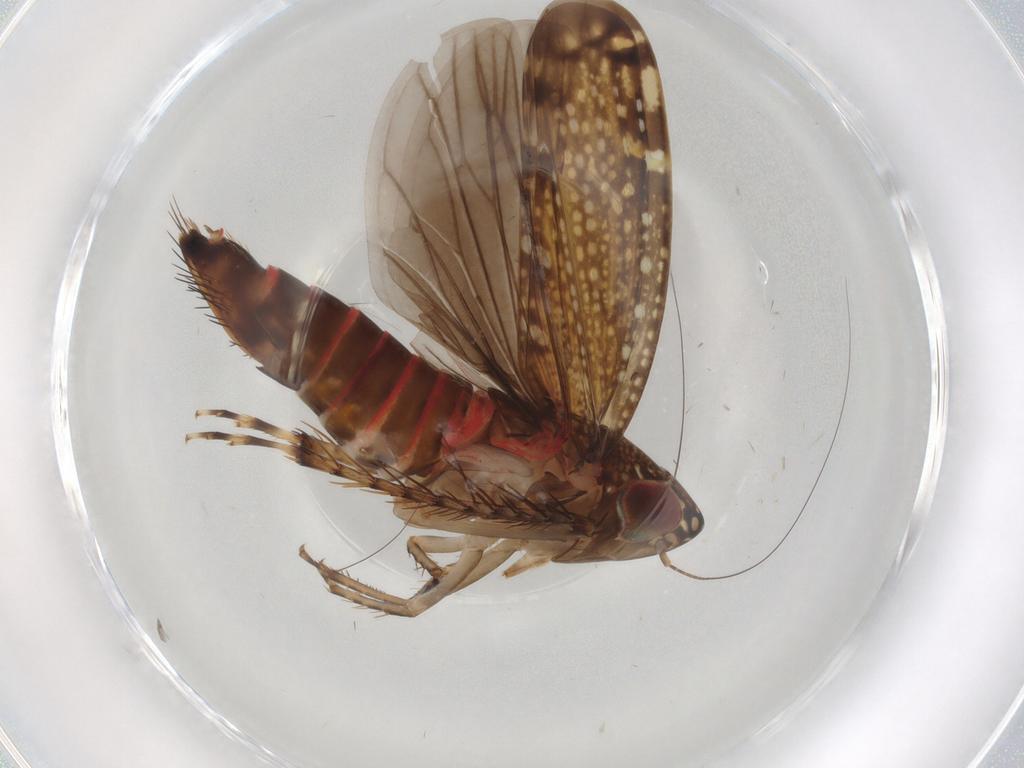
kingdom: Animalia
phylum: Arthropoda
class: Insecta
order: Hemiptera
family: Cicadellidae
